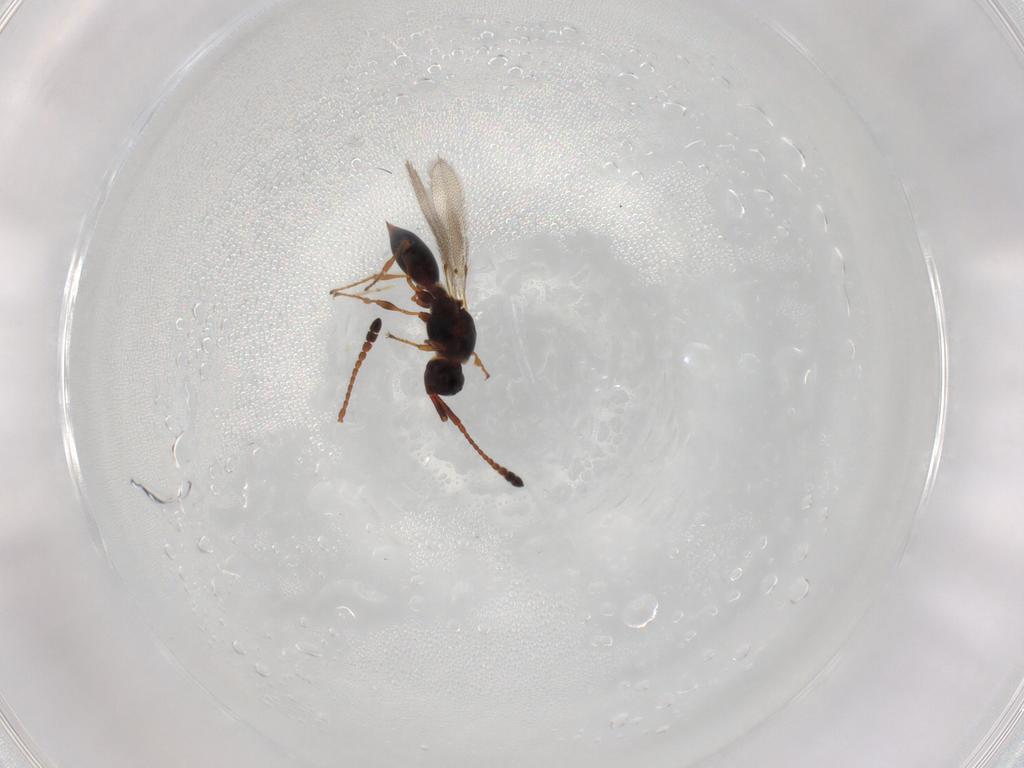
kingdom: Animalia
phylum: Arthropoda
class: Insecta
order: Hymenoptera
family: Diapriidae
